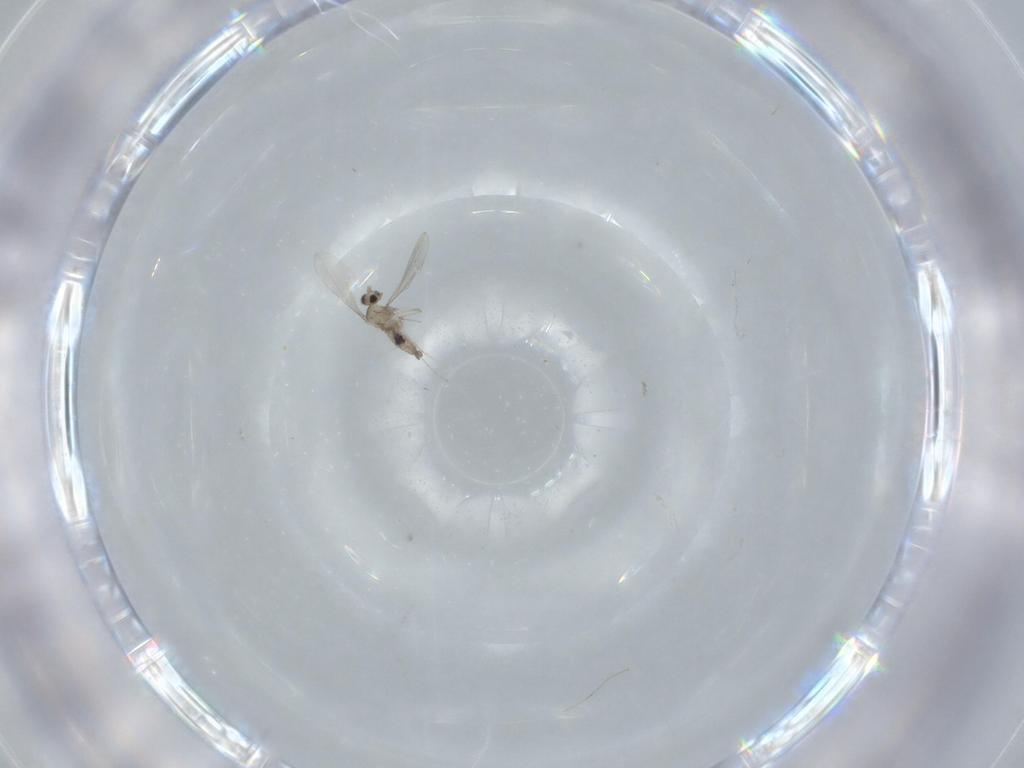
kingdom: Animalia
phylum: Arthropoda
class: Insecta
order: Diptera
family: Cecidomyiidae
